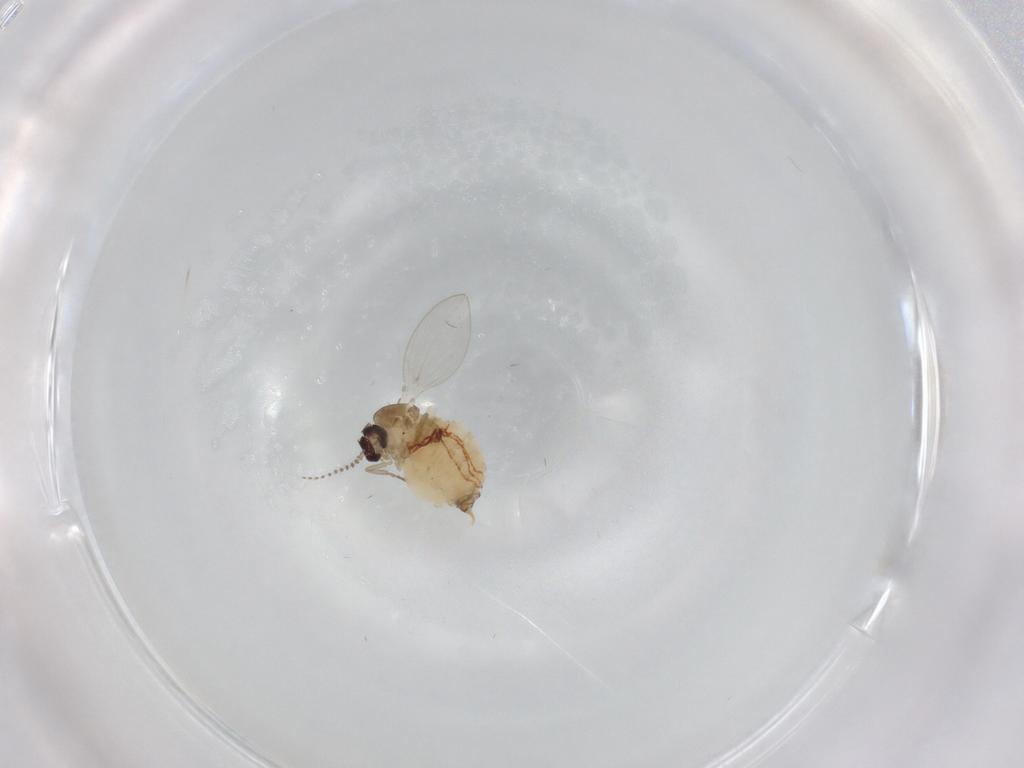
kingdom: Animalia
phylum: Arthropoda
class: Insecta
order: Diptera
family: Psychodidae
